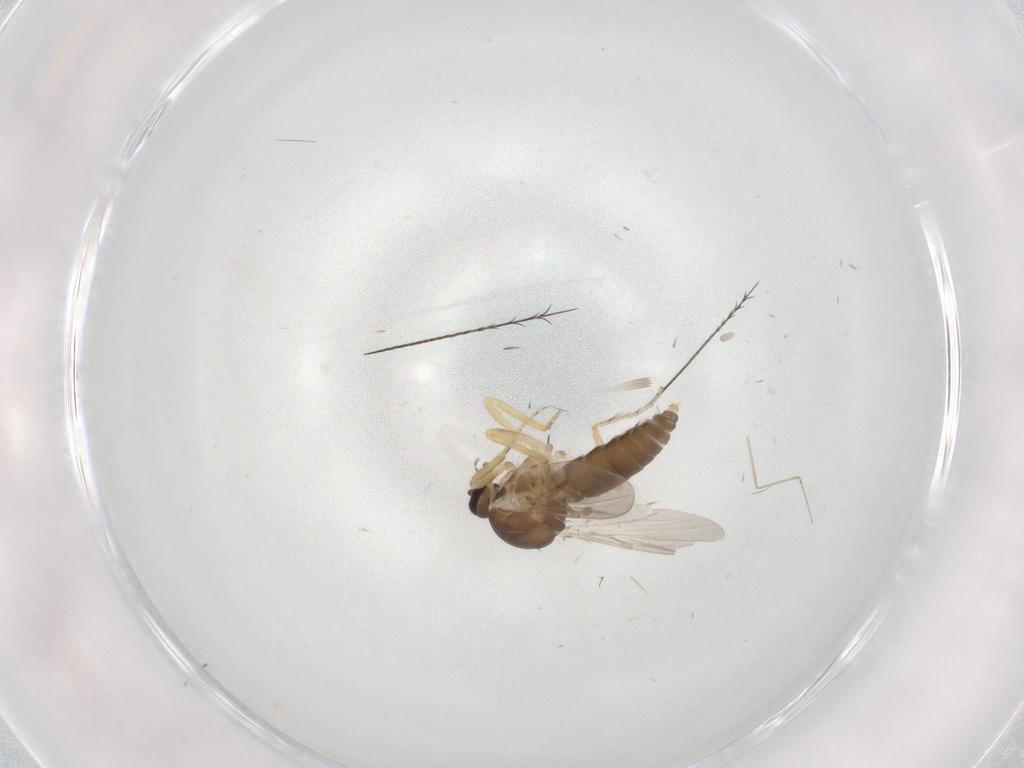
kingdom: Animalia
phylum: Arthropoda
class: Insecta
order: Diptera
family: Ceratopogonidae
